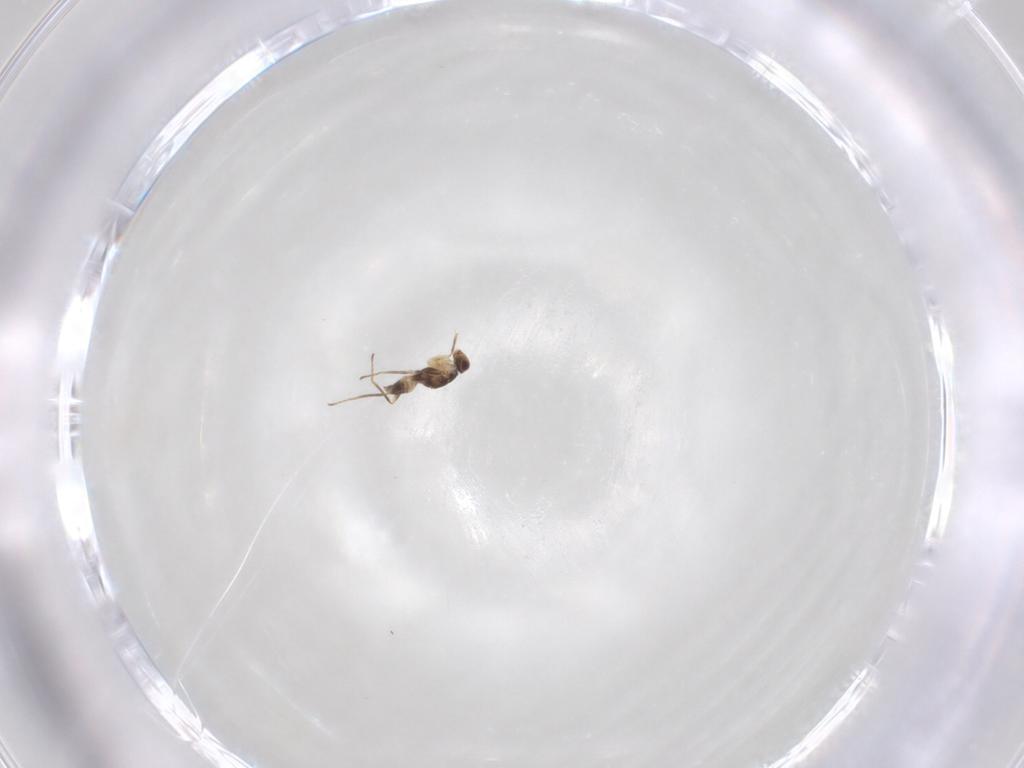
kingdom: Animalia
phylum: Arthropoda
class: Insecta
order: Hymenoptera
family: Mymaridae
